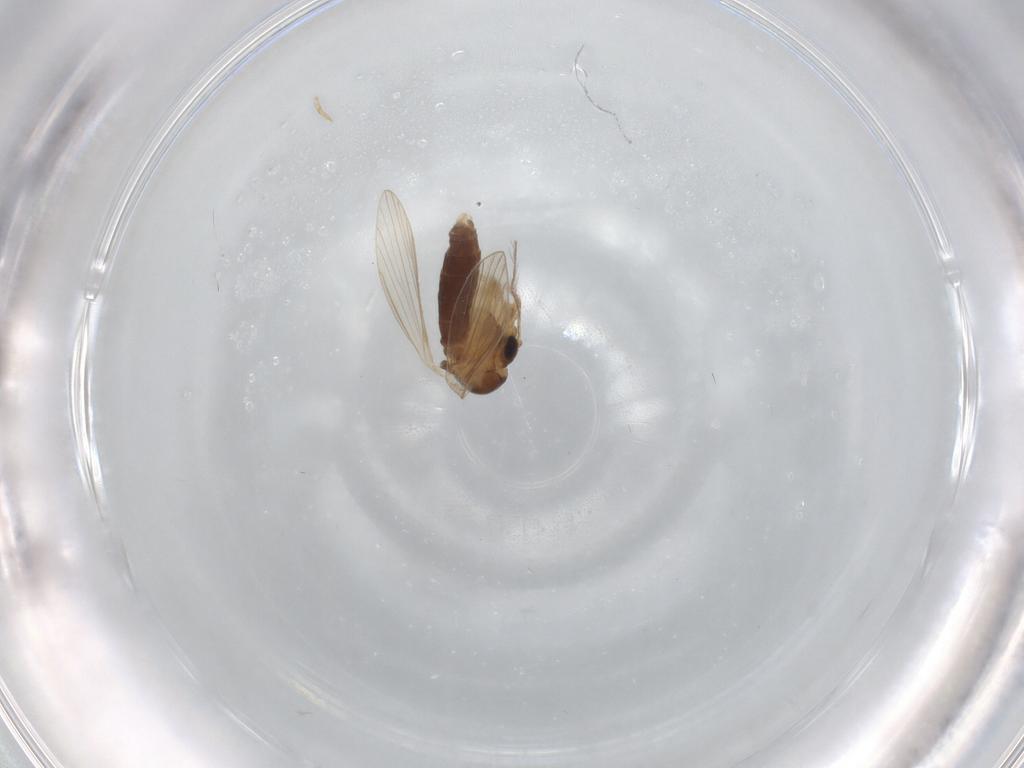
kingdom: Animalia
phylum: Arthropoda
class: Insecta
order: Diptera
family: Psychodidae
